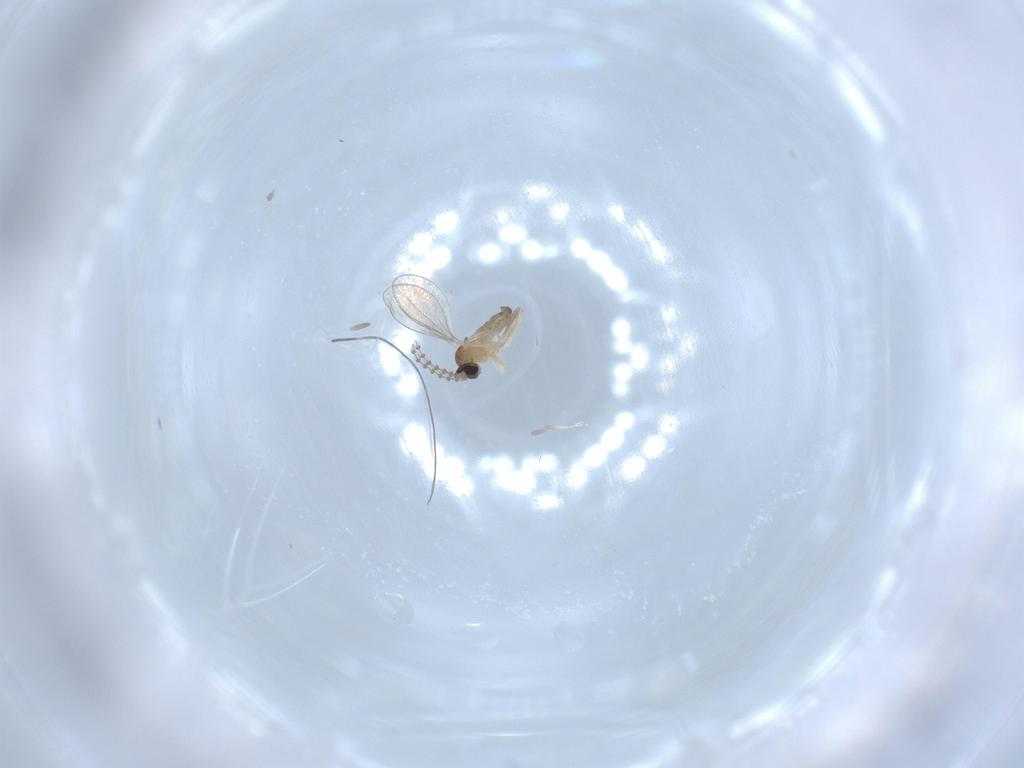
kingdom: Animalia
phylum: Arthropoda
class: Insecta
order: Diptera
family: Cecidomyiidae
